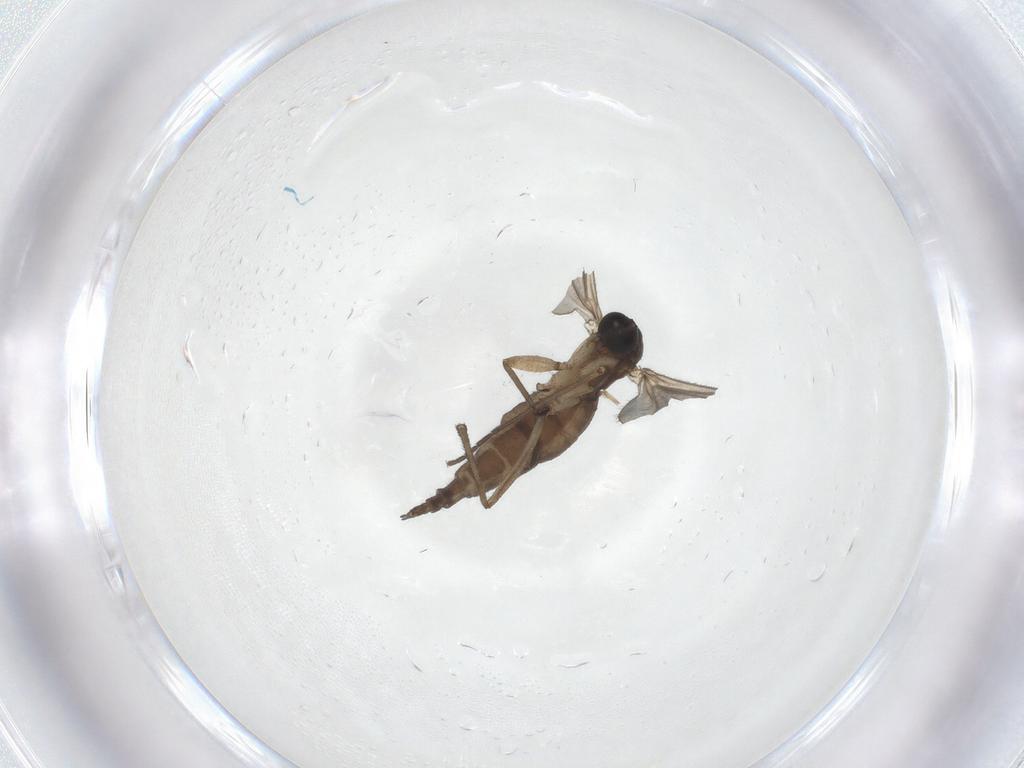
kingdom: Animalia
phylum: Arthropoda
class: Insecta
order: Diptera
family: Sciaridae
